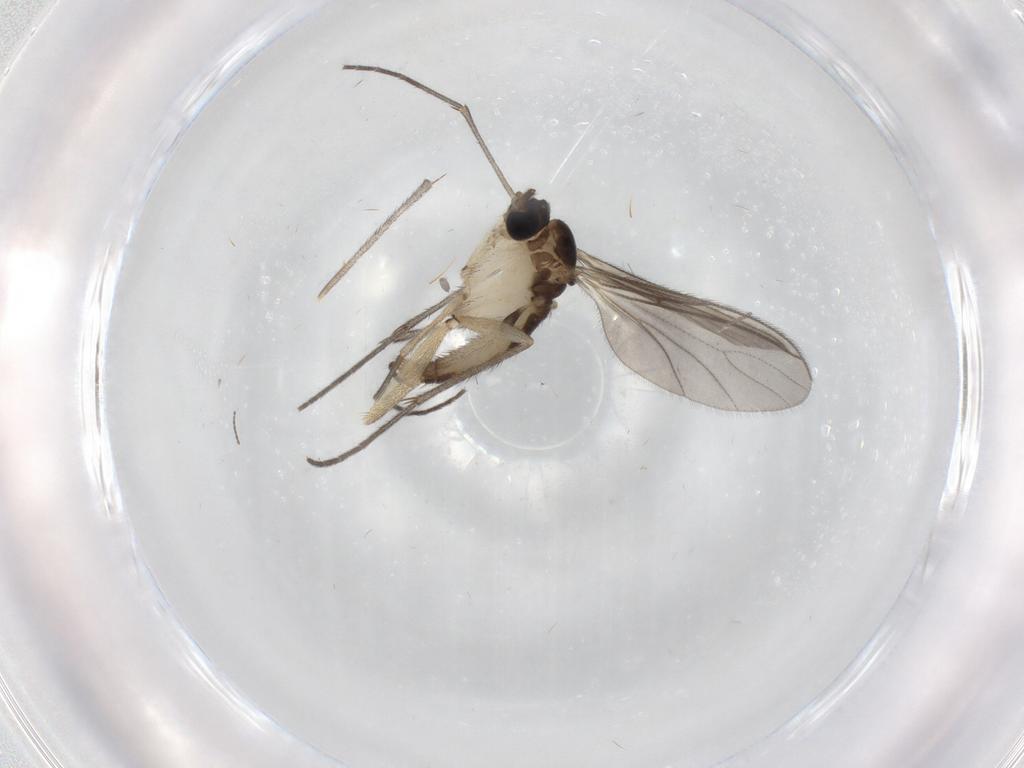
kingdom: Animalia
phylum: Arthropoda
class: Insecta
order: Diptera
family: Sciaridae
